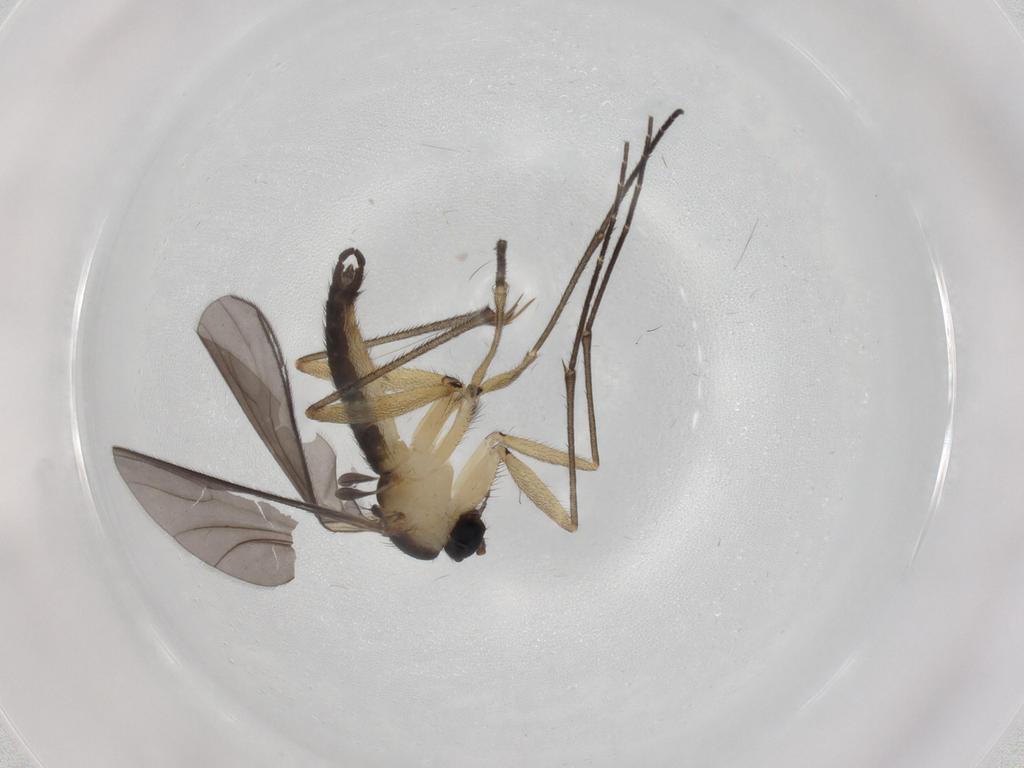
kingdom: Animalia
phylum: Arthropoda
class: Insecta
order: Diptera
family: Sciaridae
